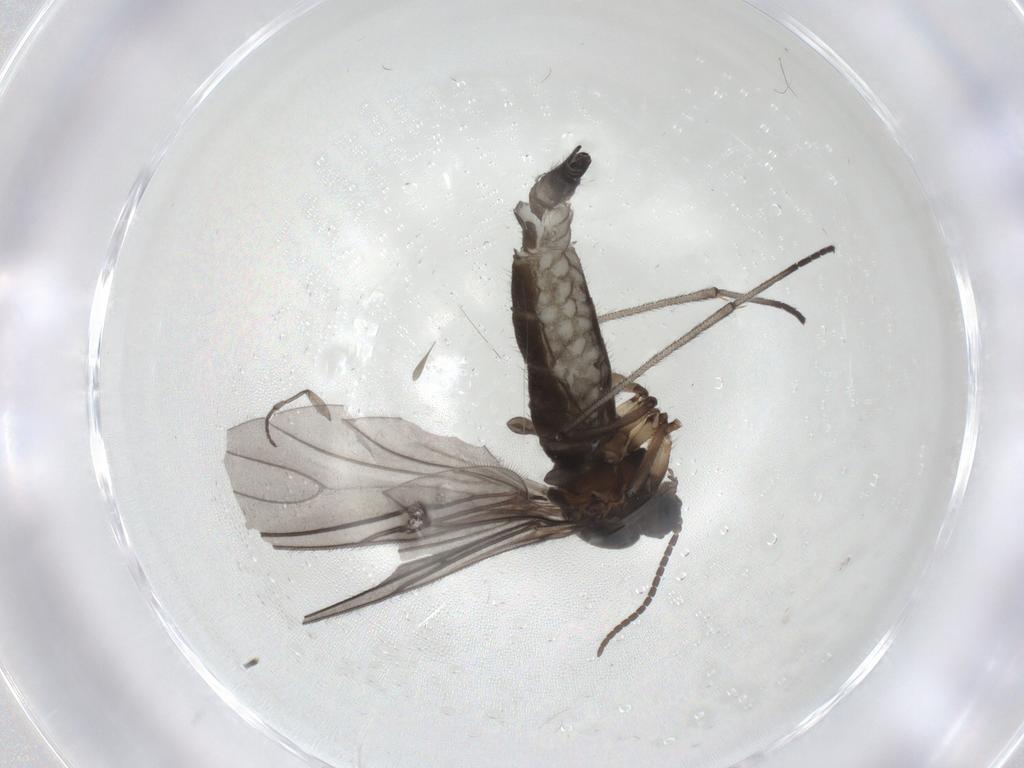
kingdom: Animalia
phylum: Arthropoda
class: Insecta
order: Diptera
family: Sciaridae
